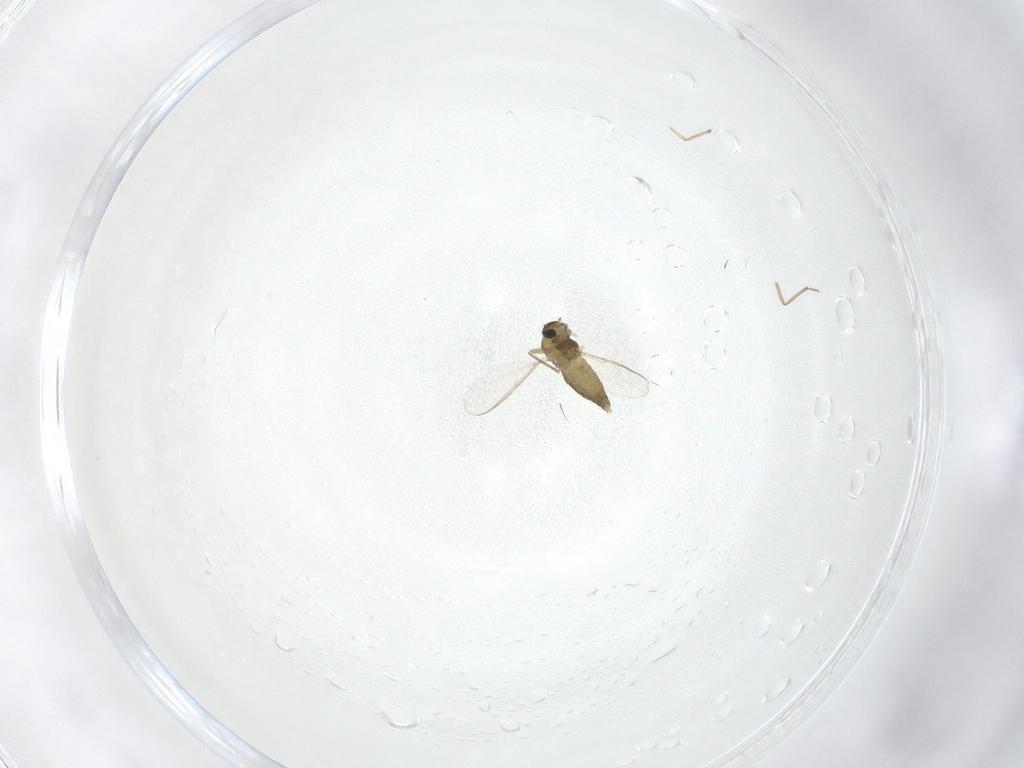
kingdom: Animalia
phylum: Arthropoda
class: Insecta
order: Diptera
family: Chironomidae
